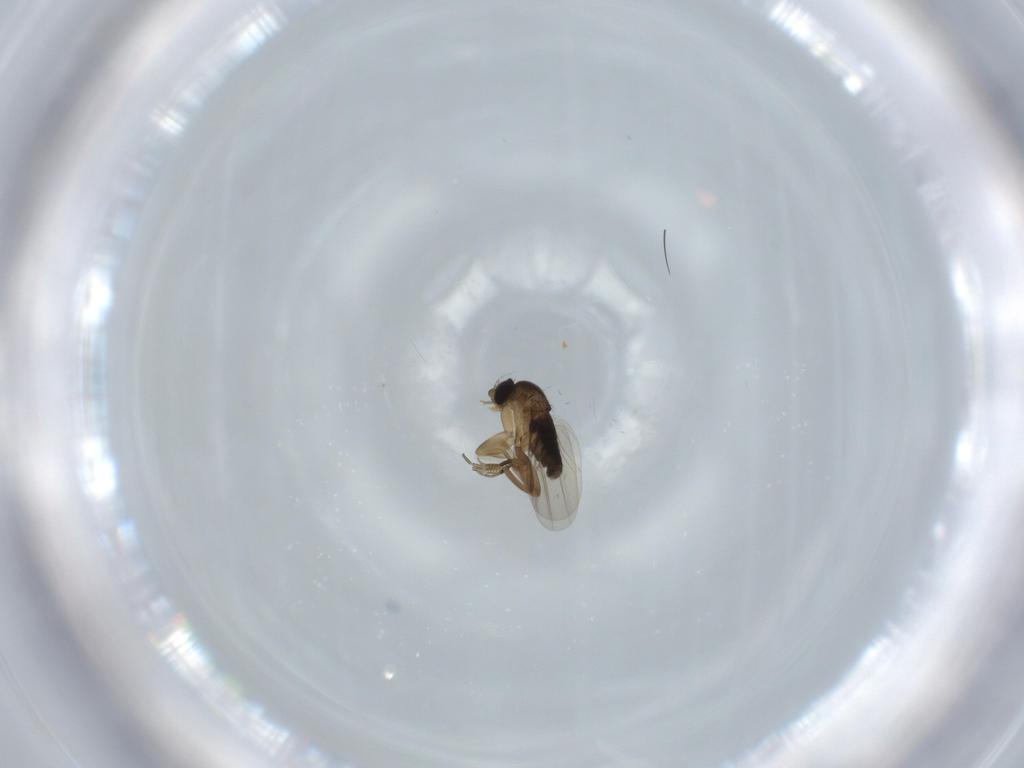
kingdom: Animalia
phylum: Arthropoda
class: Insecta
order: Diptera
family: Phoridae
